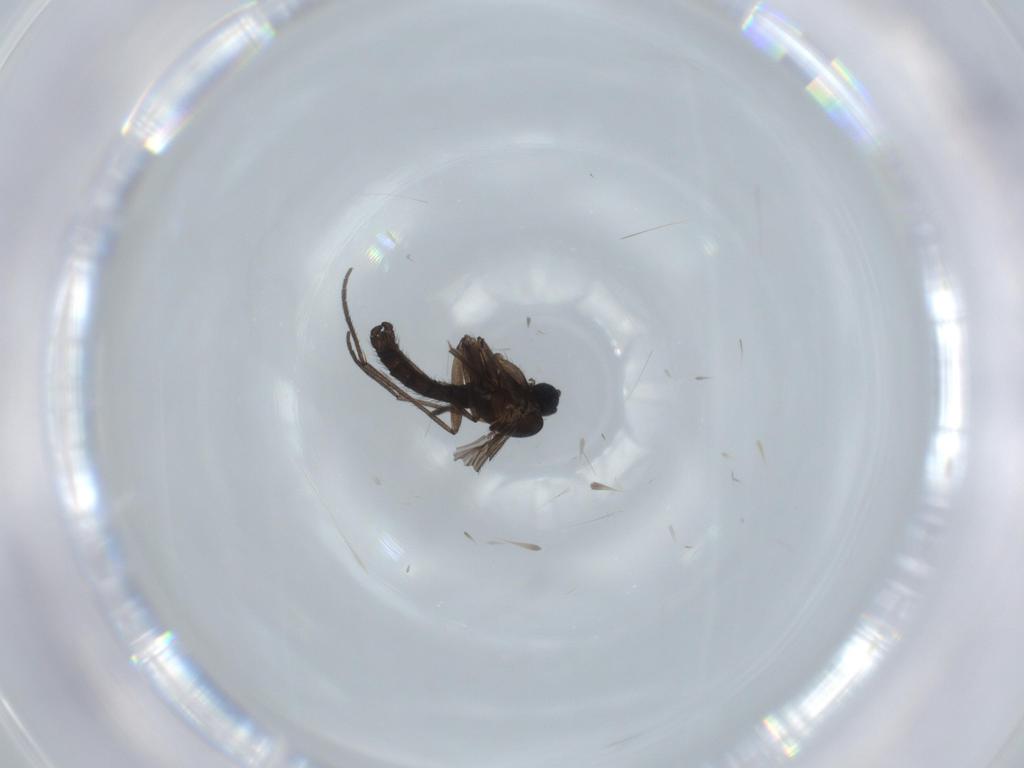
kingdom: Animalia
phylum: Arthropoda
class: Insecta
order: Diptera
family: Sciaridae
